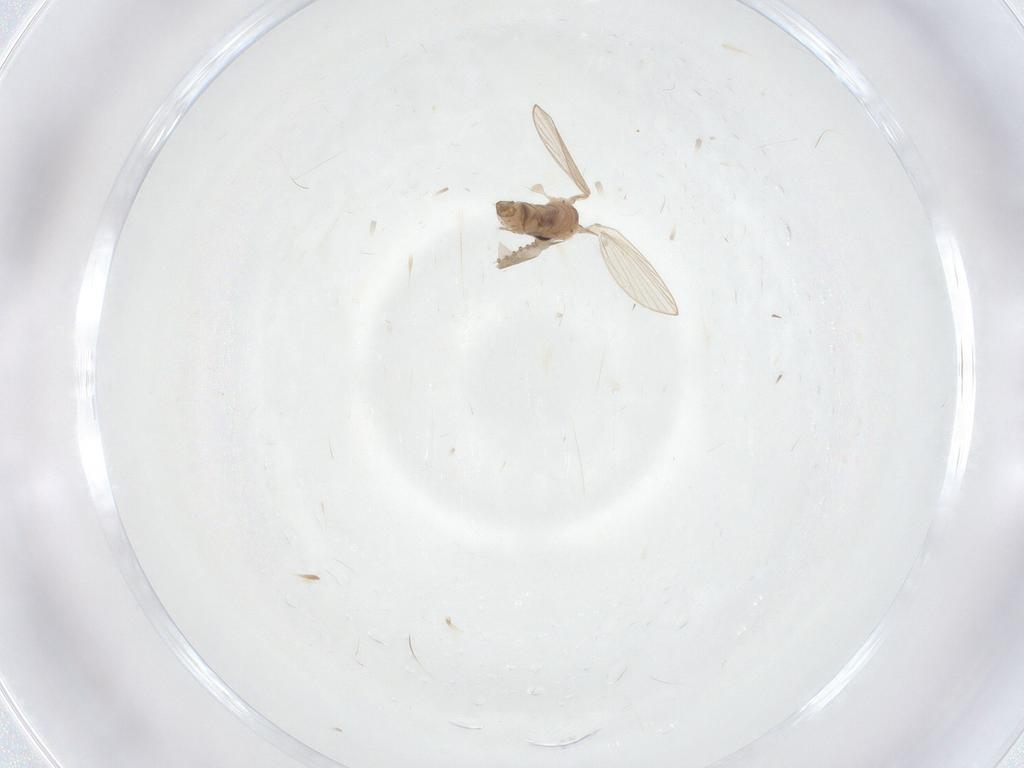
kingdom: Animalia
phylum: Arthropoda
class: Insecta
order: Diptera
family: Psychodidae
